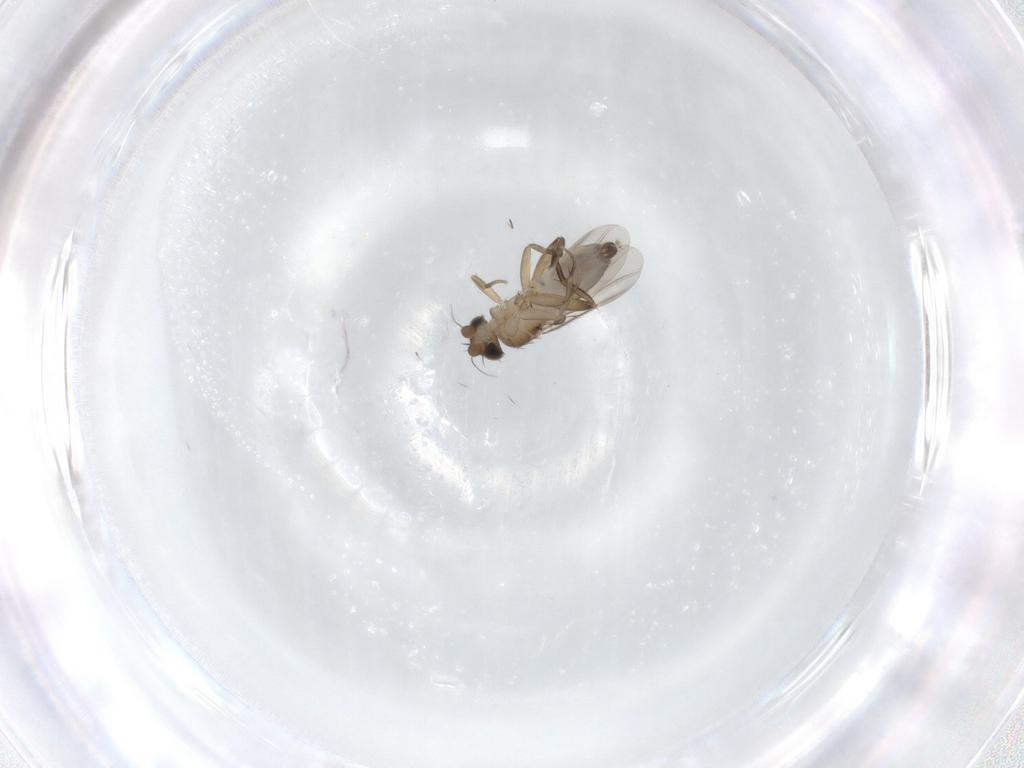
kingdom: Animalia
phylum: Arthropoda
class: Insecta
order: Diptera
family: Phoridae
